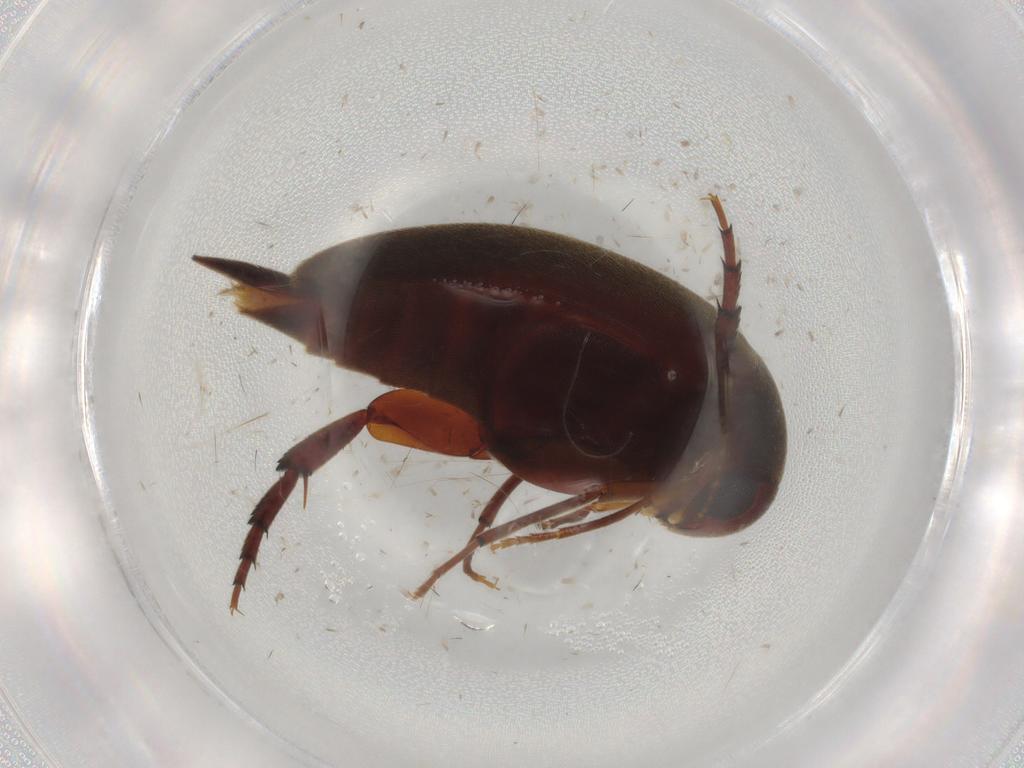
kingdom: Animalia
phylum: Arthropoda
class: Insecta
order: Coleoptera
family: Mordellidae
